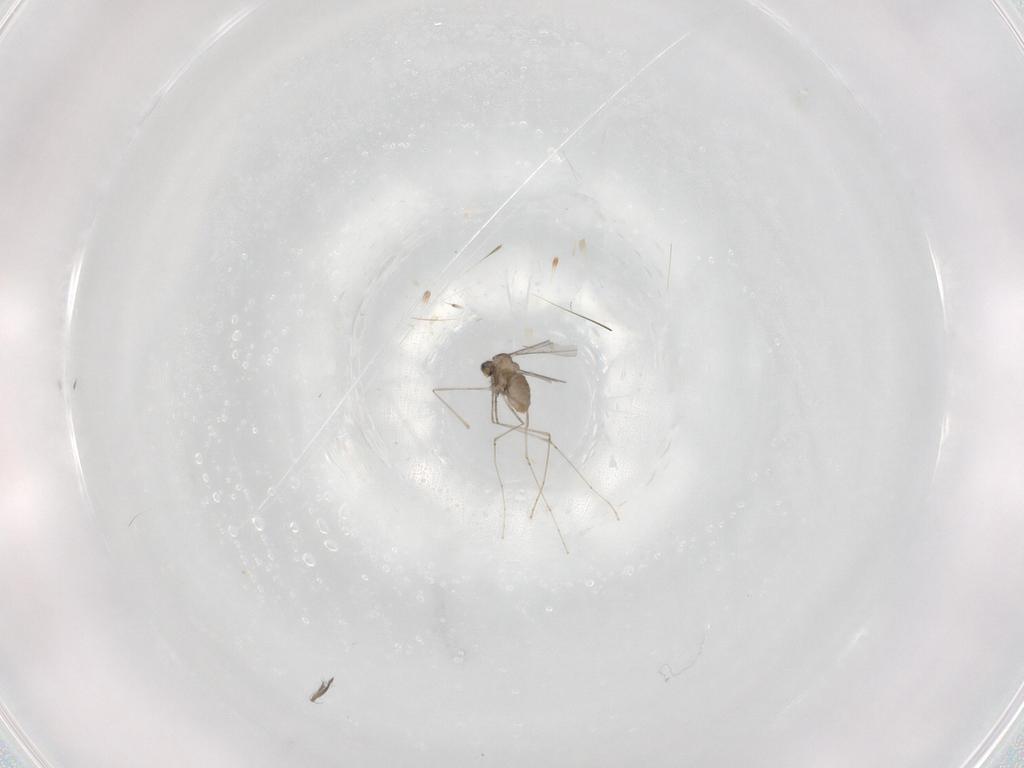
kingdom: Animalia
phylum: Arthropoda
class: Insecta
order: Diptera
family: Cecidomyiidae
